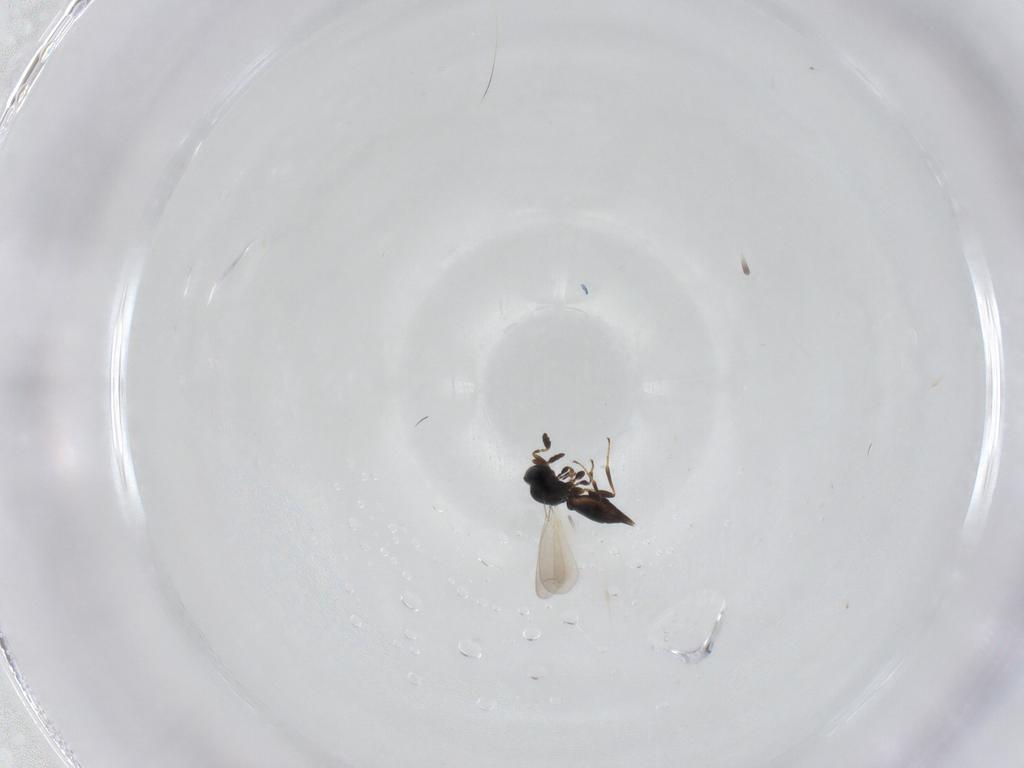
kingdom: Animalia
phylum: Arthropoda
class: Insecta
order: Hymenoptera
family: Platygastridae
